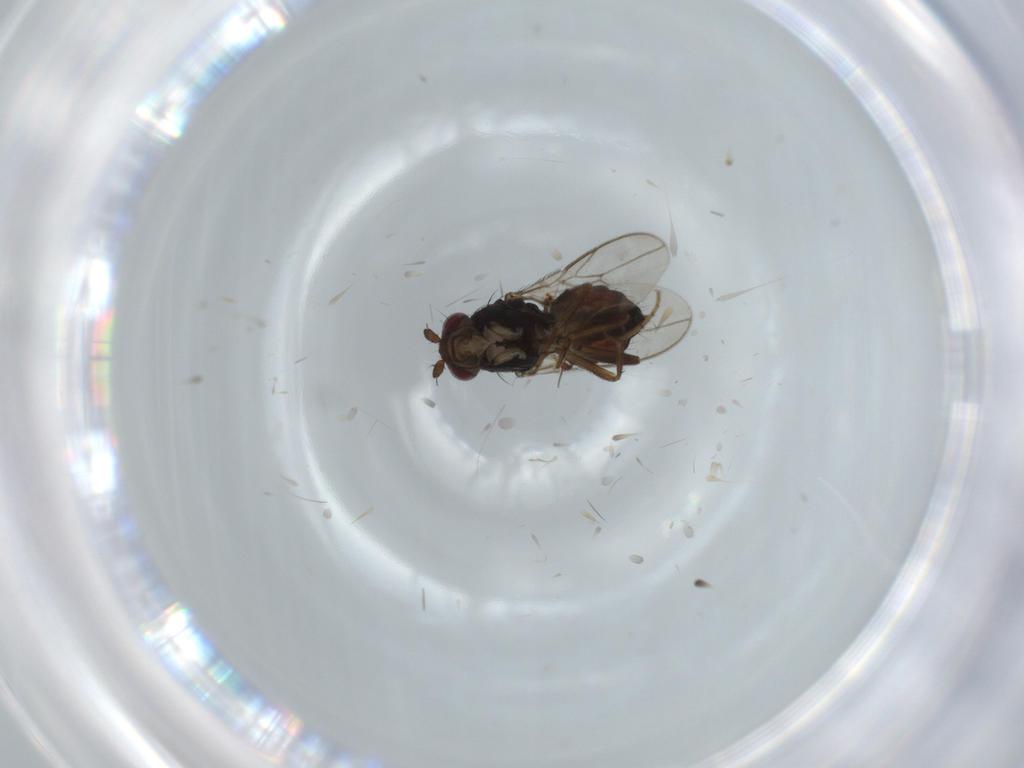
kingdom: Animalia
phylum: Arthropoda
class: Insecta
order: Diptera
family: Sphaeroceridae
